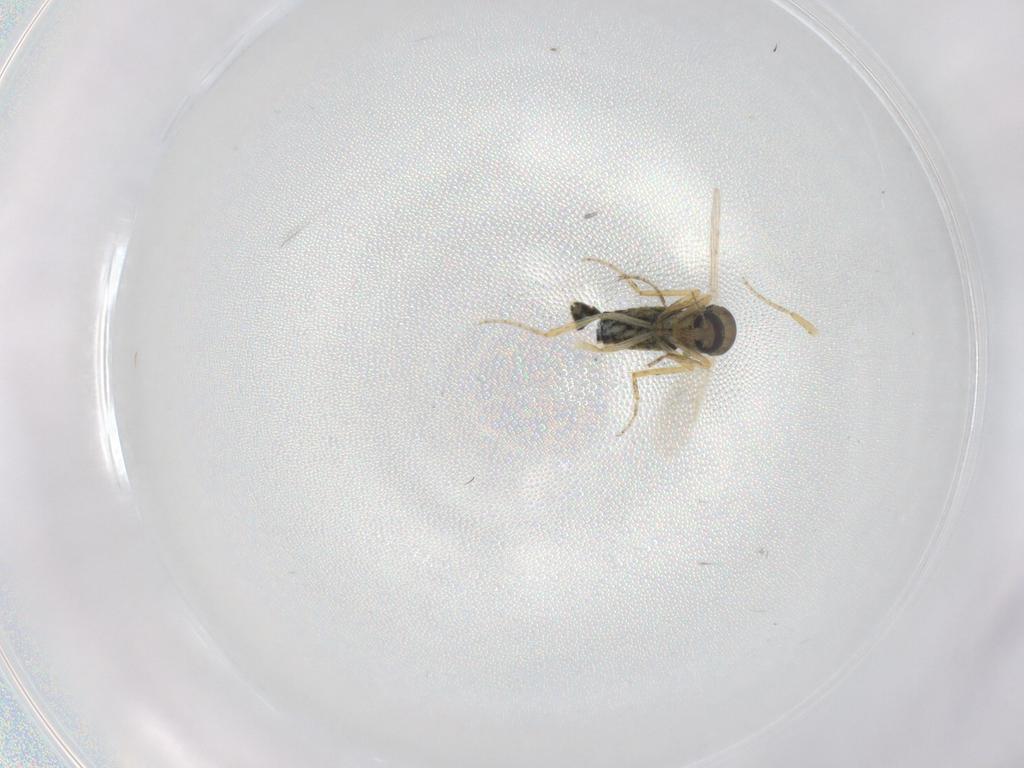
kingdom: Animalia
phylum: Arthropoda
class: Insecta
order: Diptera
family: Ceratopogonidae
